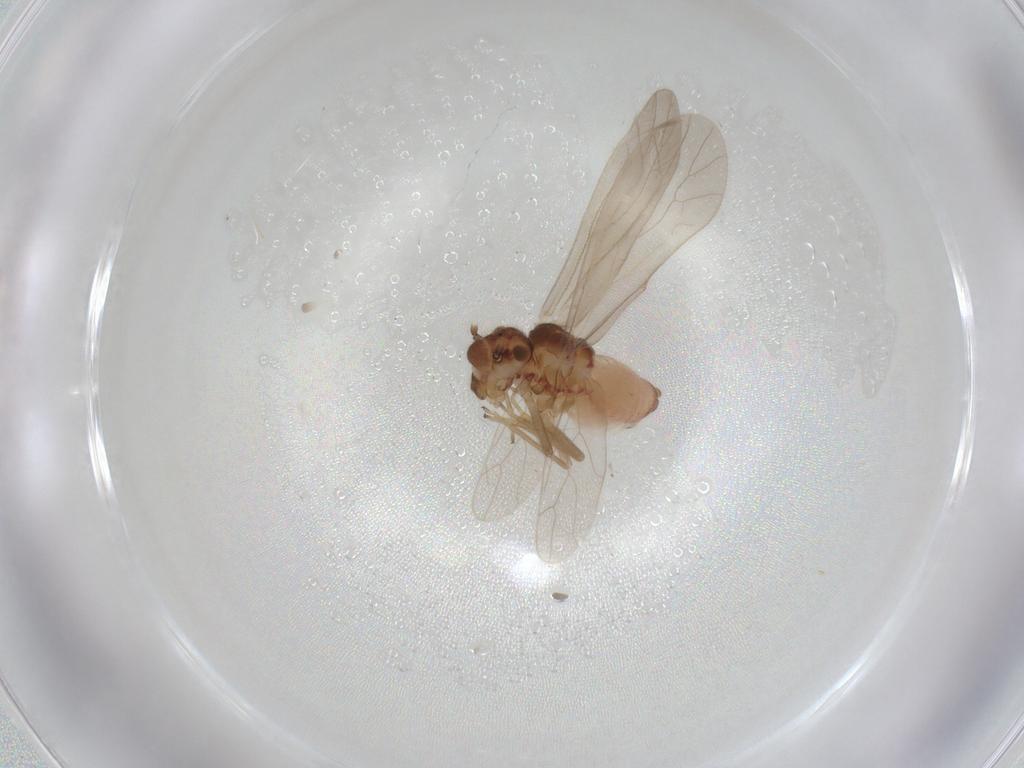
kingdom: Animalia
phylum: Arthropoda
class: Insecta
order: Psocodea
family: Caeciliusidae
